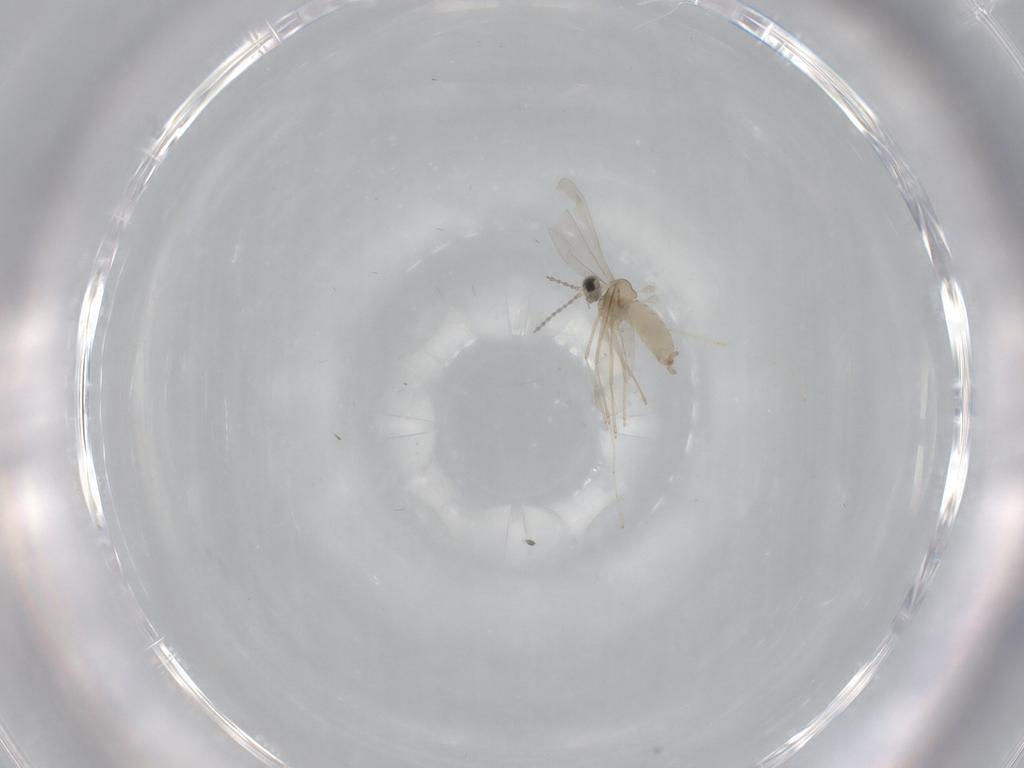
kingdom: Animalia
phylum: Arthropoda
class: Insecta
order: Diptera
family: Cecidomyiidae
